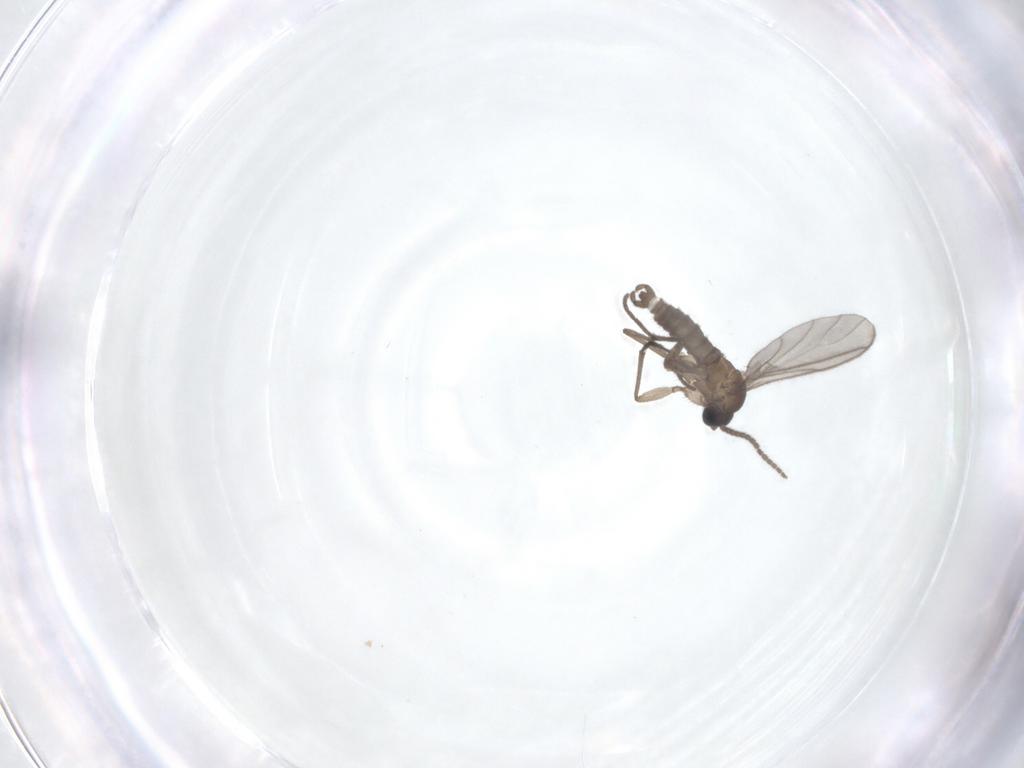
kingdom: Animalia
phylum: Arthropoda
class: Insecta
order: Diptera
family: Sciaridae
